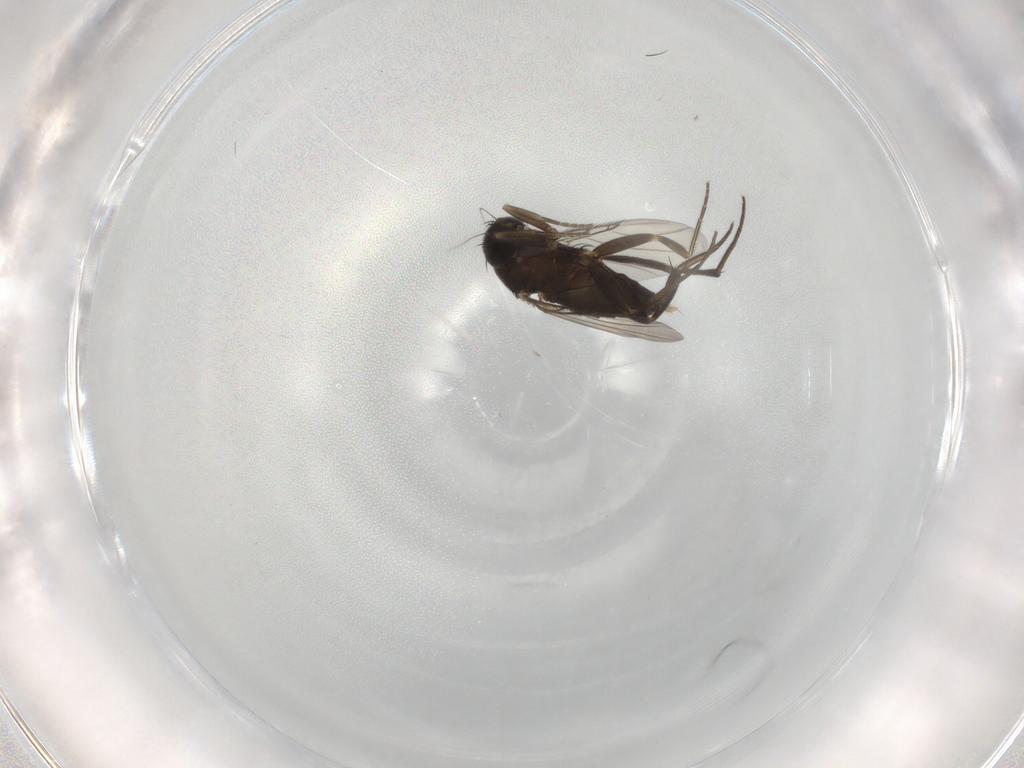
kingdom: Animalia
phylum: Arthropoda
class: Insecta
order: Diptera
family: Phoridae
